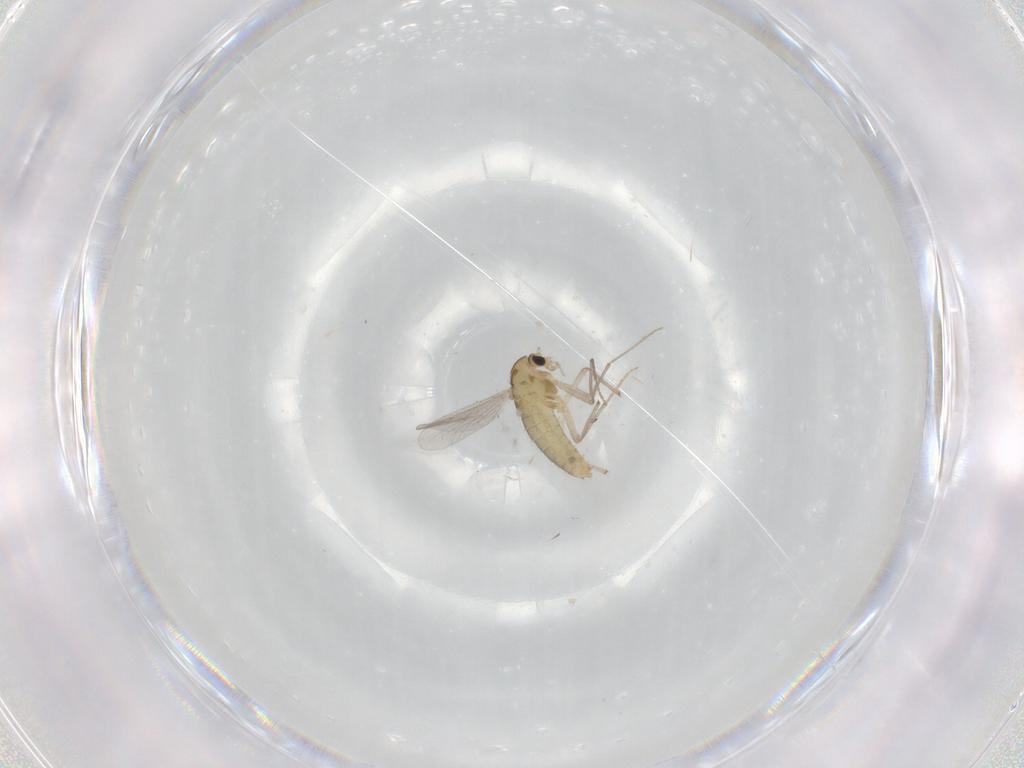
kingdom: Animalia
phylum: Arthropoda
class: Insecta
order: Diptera
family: Chironomidae
